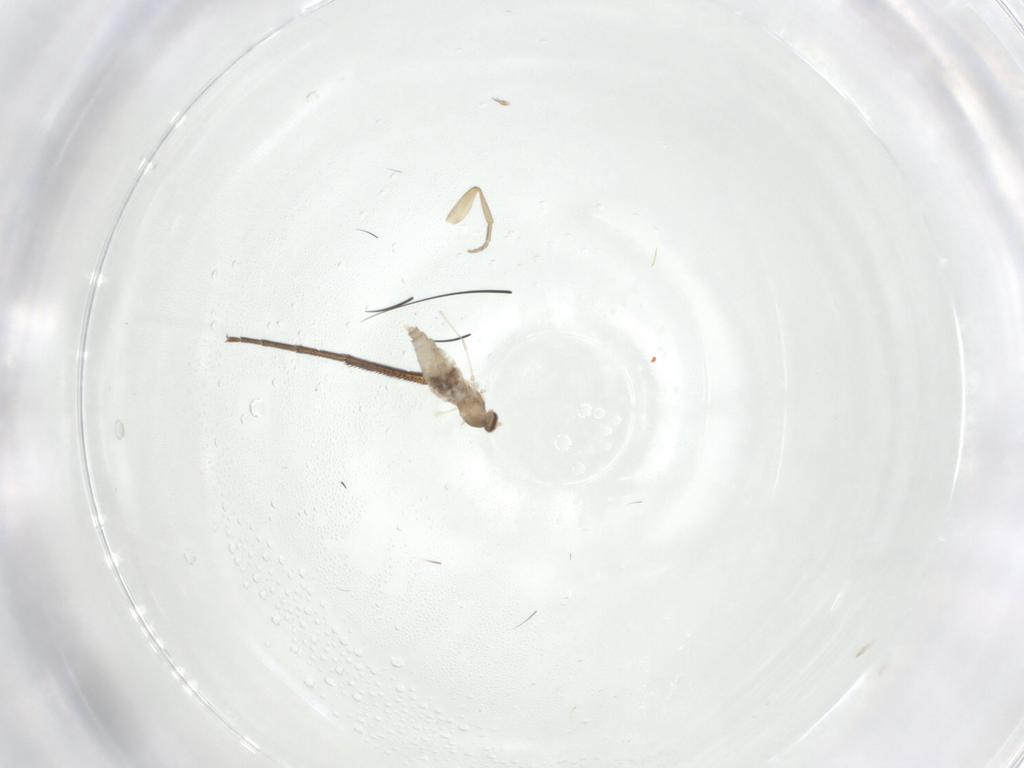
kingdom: Animalia
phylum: Arthropoda
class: Insecta
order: Diptera
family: Cecidomyiidae
